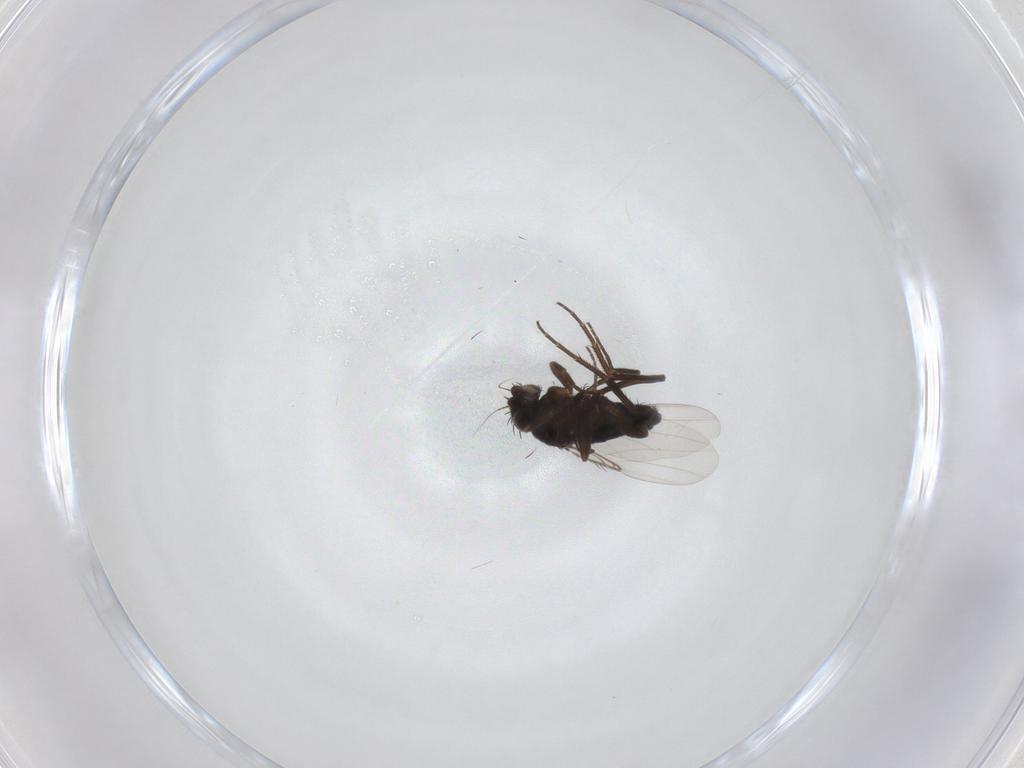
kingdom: Animalia
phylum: Arthropoda
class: Insecta
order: Diptera
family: Phoridae
